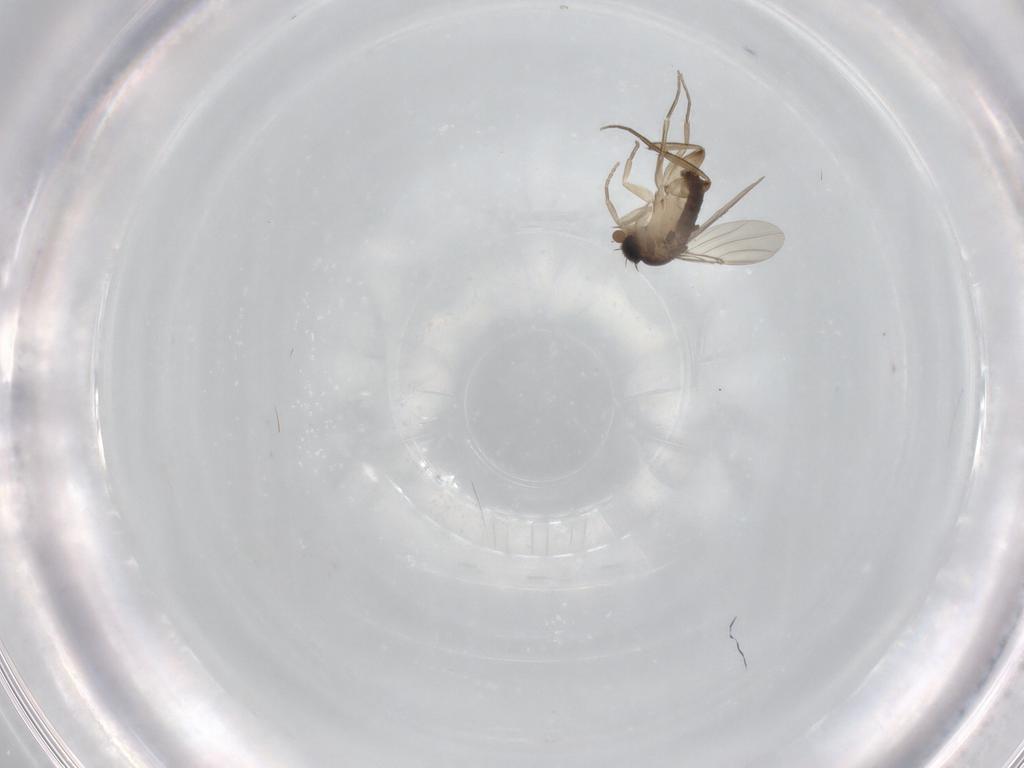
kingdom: Animalia
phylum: Arthropoda
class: Insecta
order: Diptera
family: Phoridae
